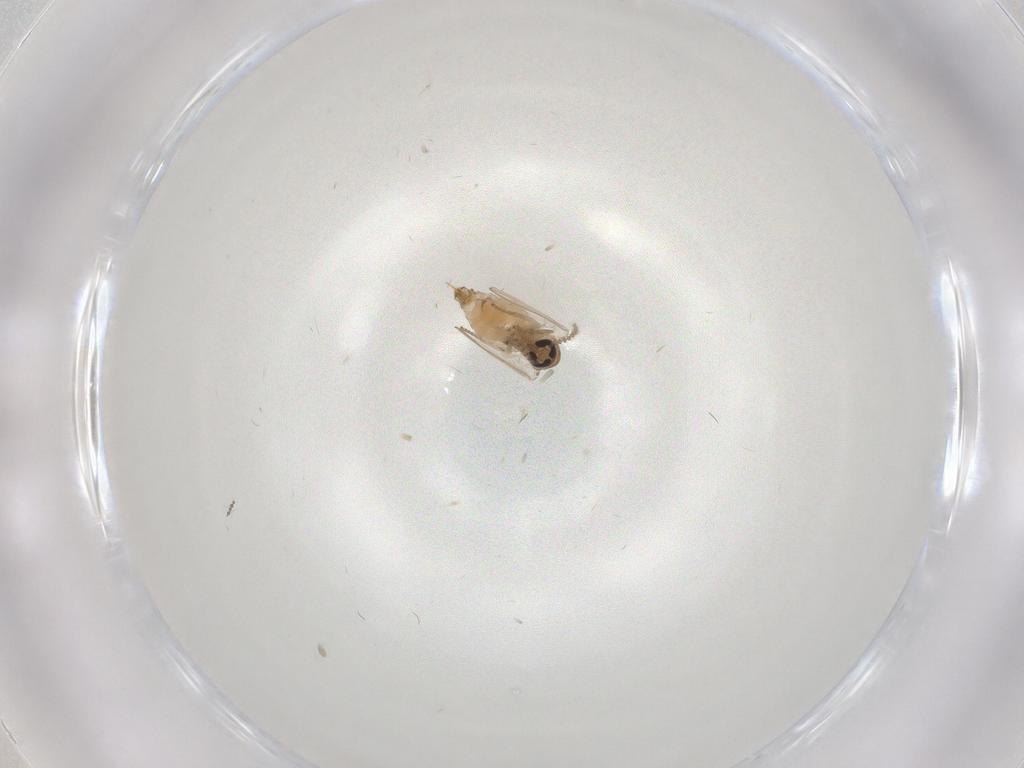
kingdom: Animalia
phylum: Arthropoda
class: Insecta
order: Diptera
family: Psychodidae
